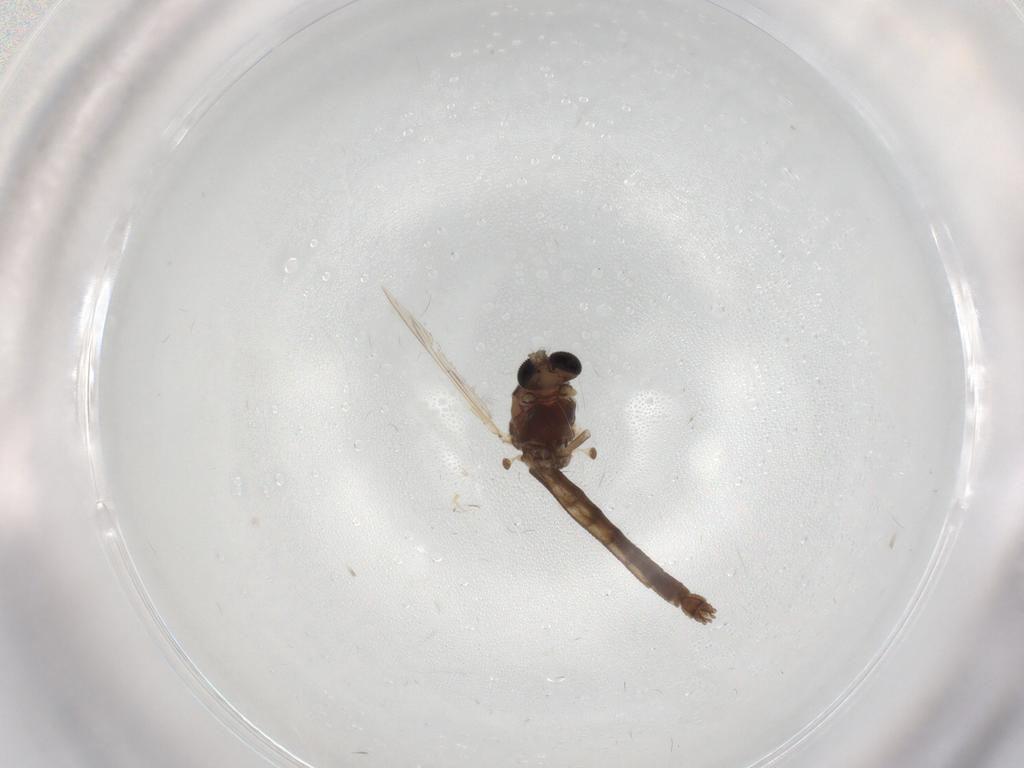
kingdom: Animalia
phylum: Arthropoda
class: Insecta
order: Diptera
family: Chironomidae
